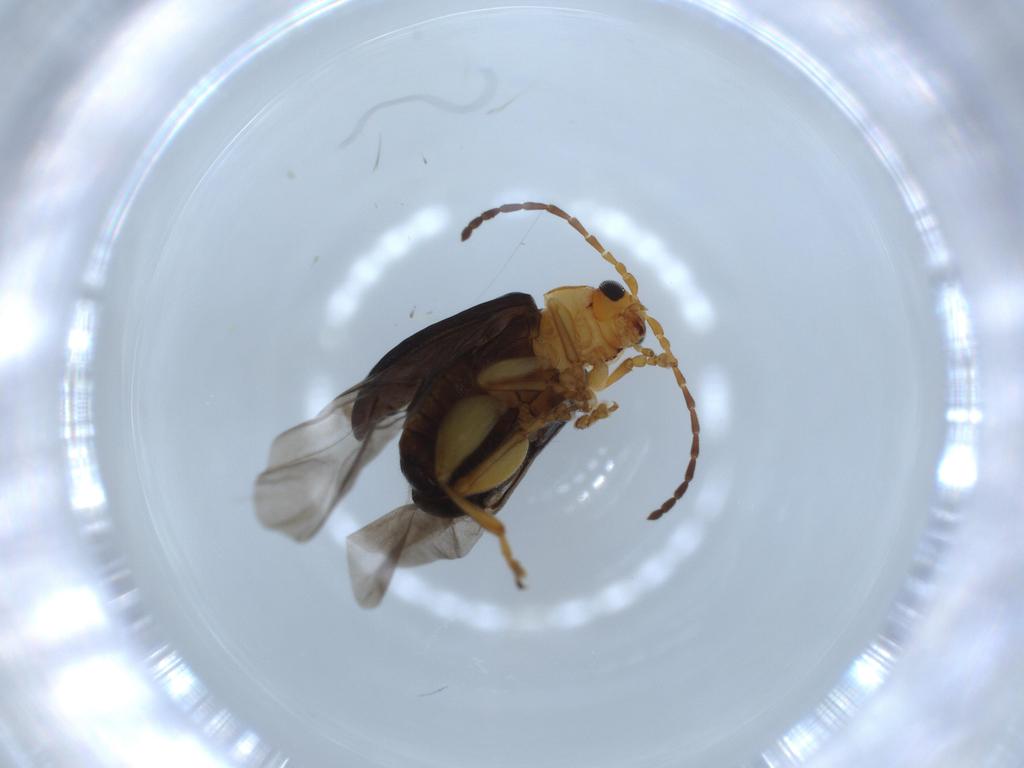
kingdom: Animalia
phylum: Arthropoda
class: Insecta
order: Coleoptera
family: Chrysomelidae
